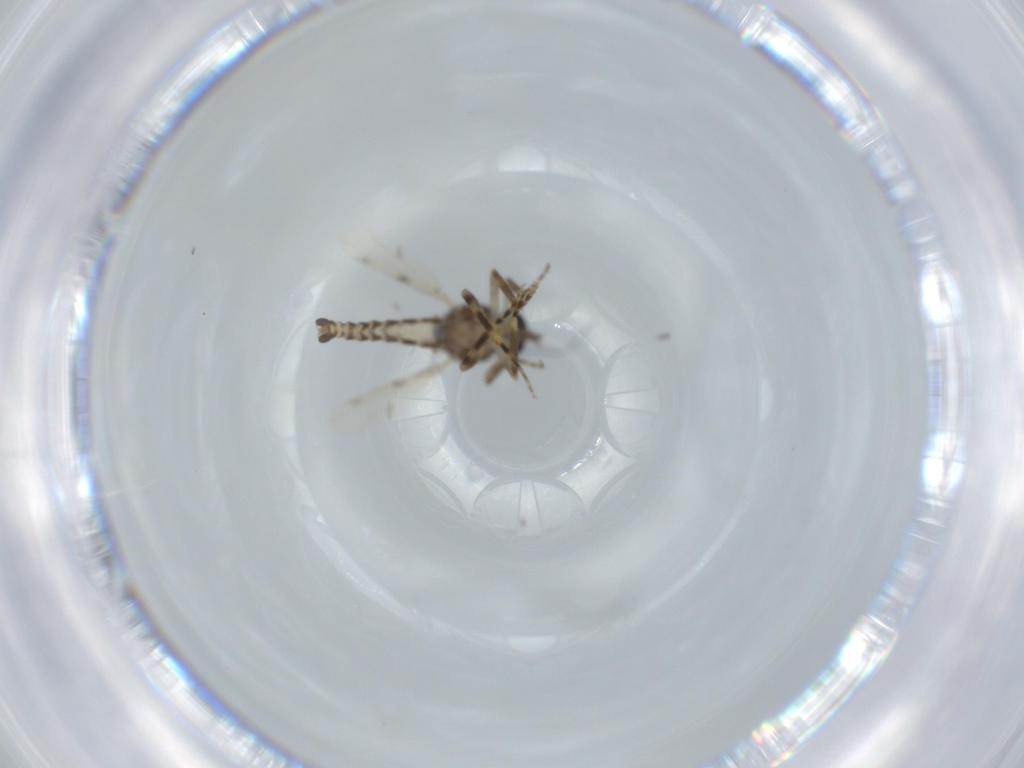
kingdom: Animalia
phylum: Arthropoda
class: Insecta
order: Diptera
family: Ceratopogonidae
